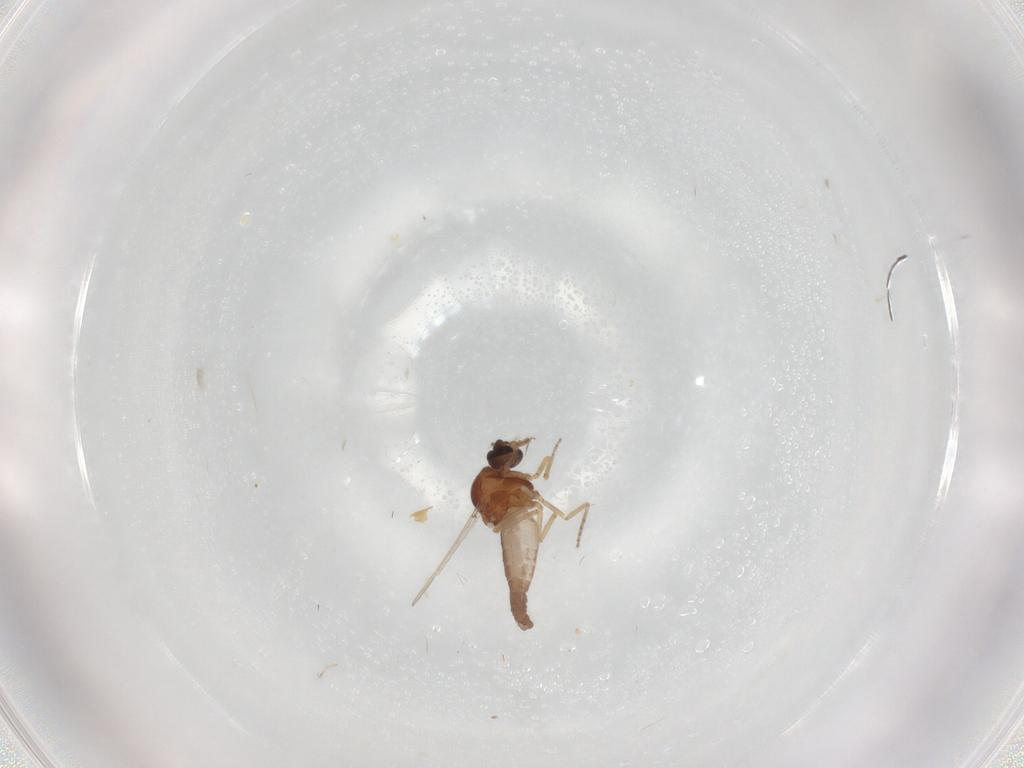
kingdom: Animalia
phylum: Arthropoda
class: Insecta
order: Diptera
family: Ceratopogonidae
